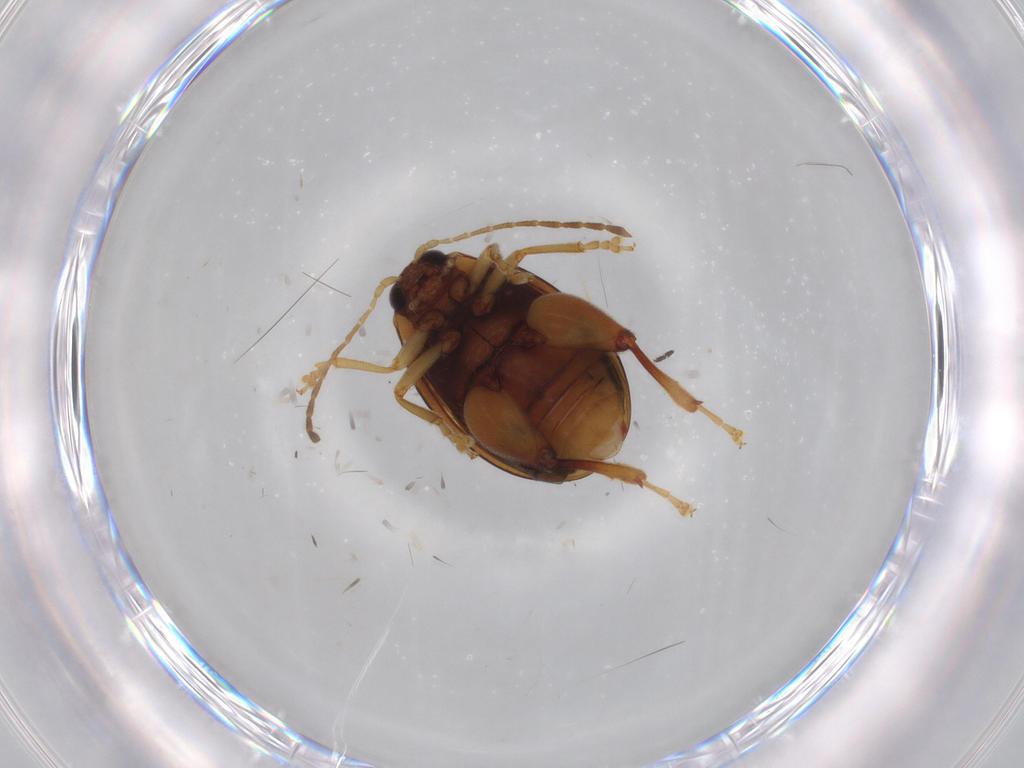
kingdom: Animalia
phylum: Arthropoda
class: Insecta
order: Coleoptera
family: Chrysomelidae
